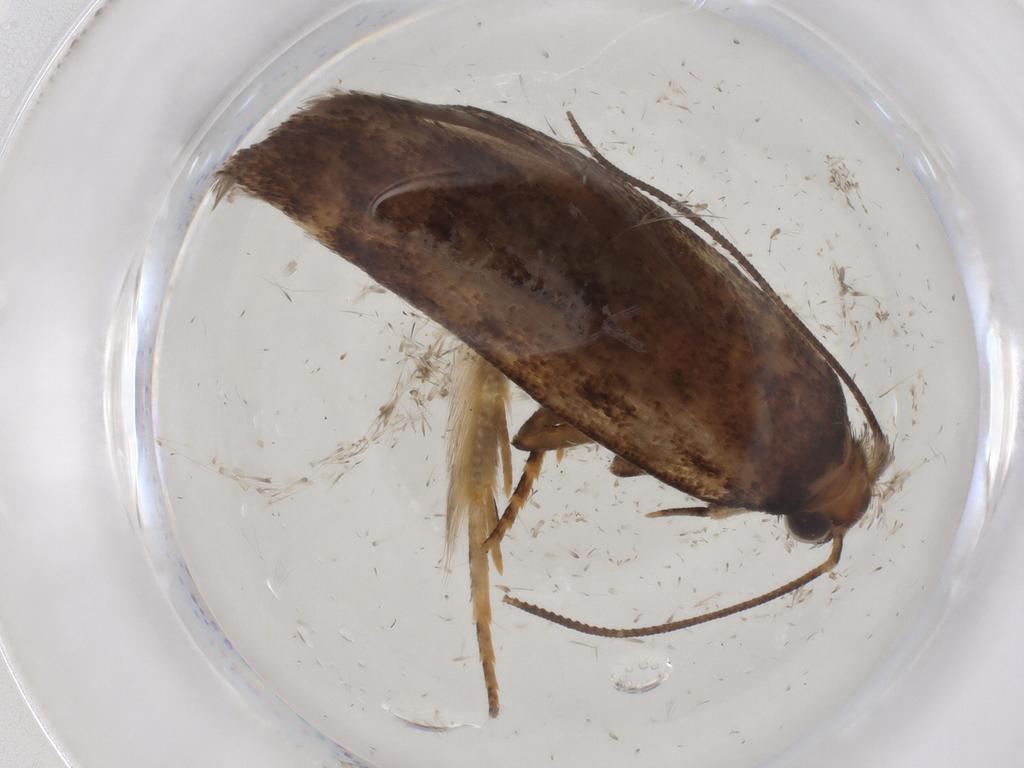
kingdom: Animalia
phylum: Arthropoda
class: Insecta
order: Lepidoptera
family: Gelechiidae
